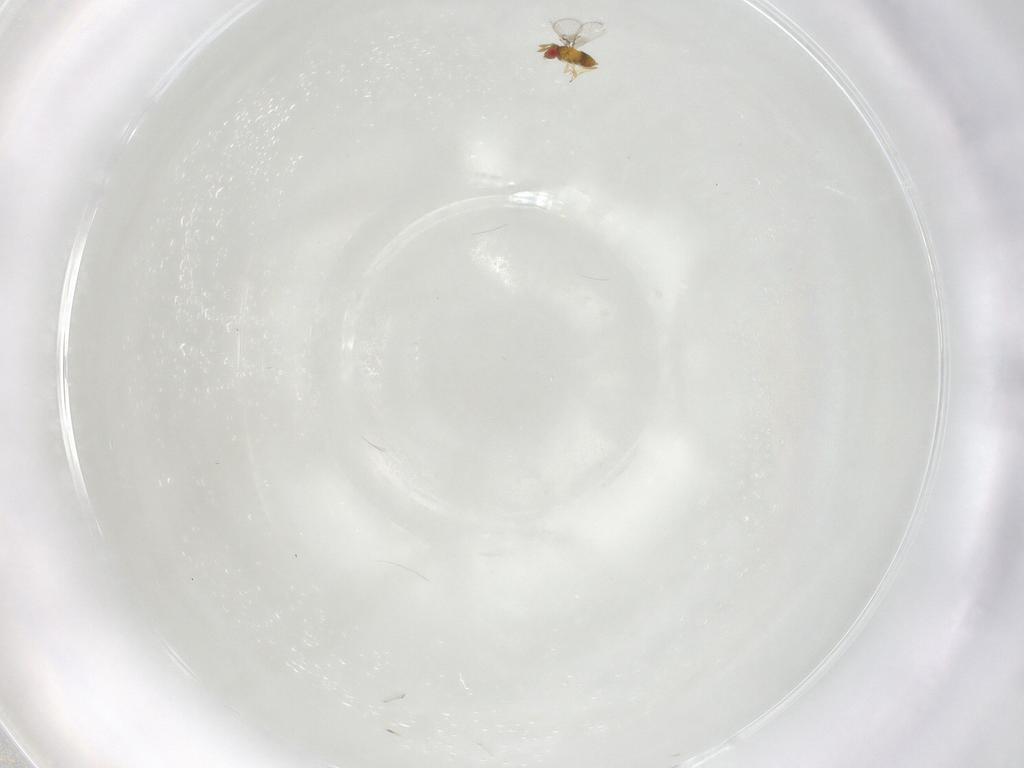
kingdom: Animalia
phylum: Arthropoda
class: Insecta
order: Hymenoptera
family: Trichogrammatidae
